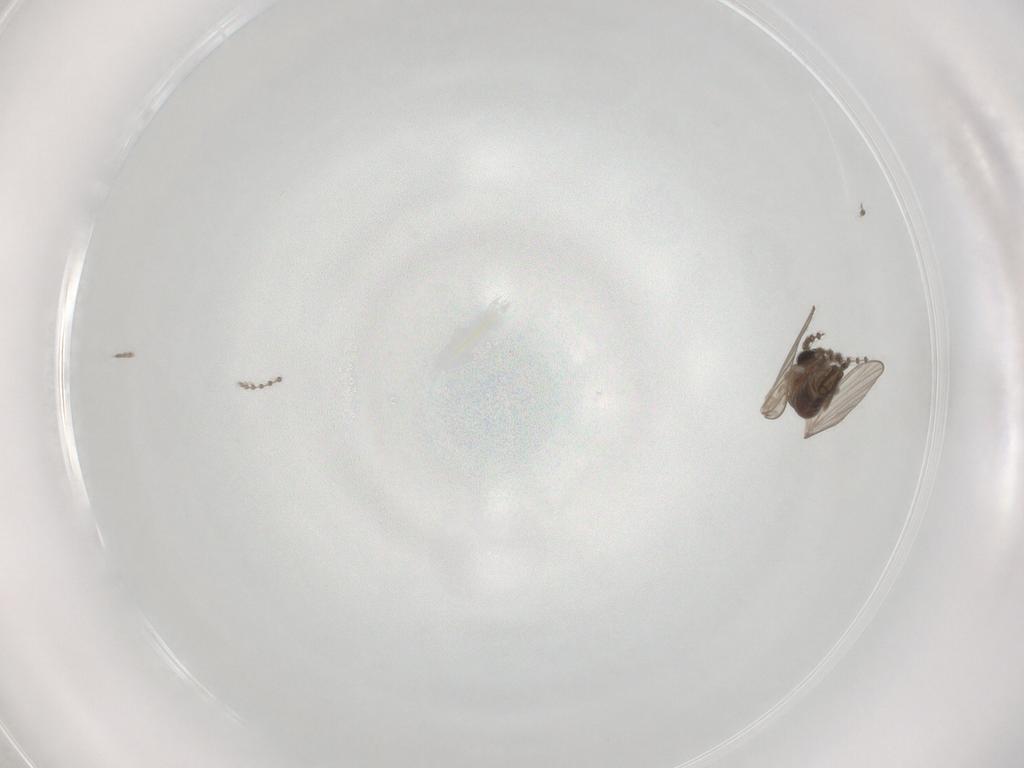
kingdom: Animalia
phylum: Arthropoda
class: Insecta
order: Diptera
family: Psychodidae
